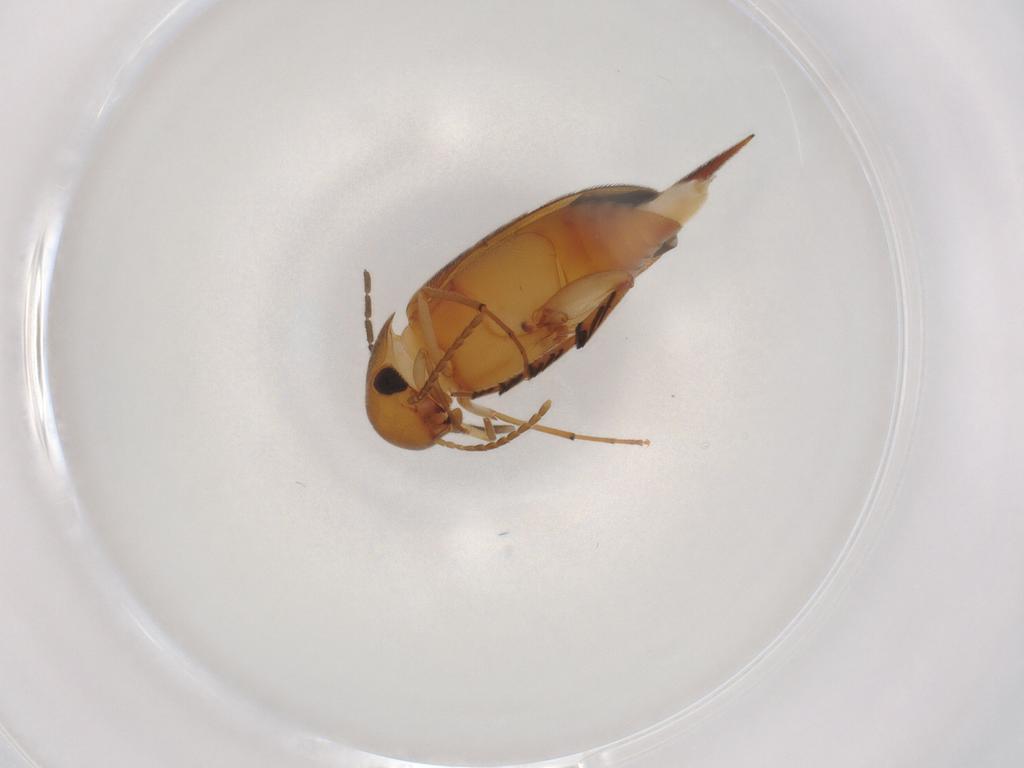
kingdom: Animalia
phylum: Arthropoda
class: Insecta
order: Coleoptera
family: Mordellidae
